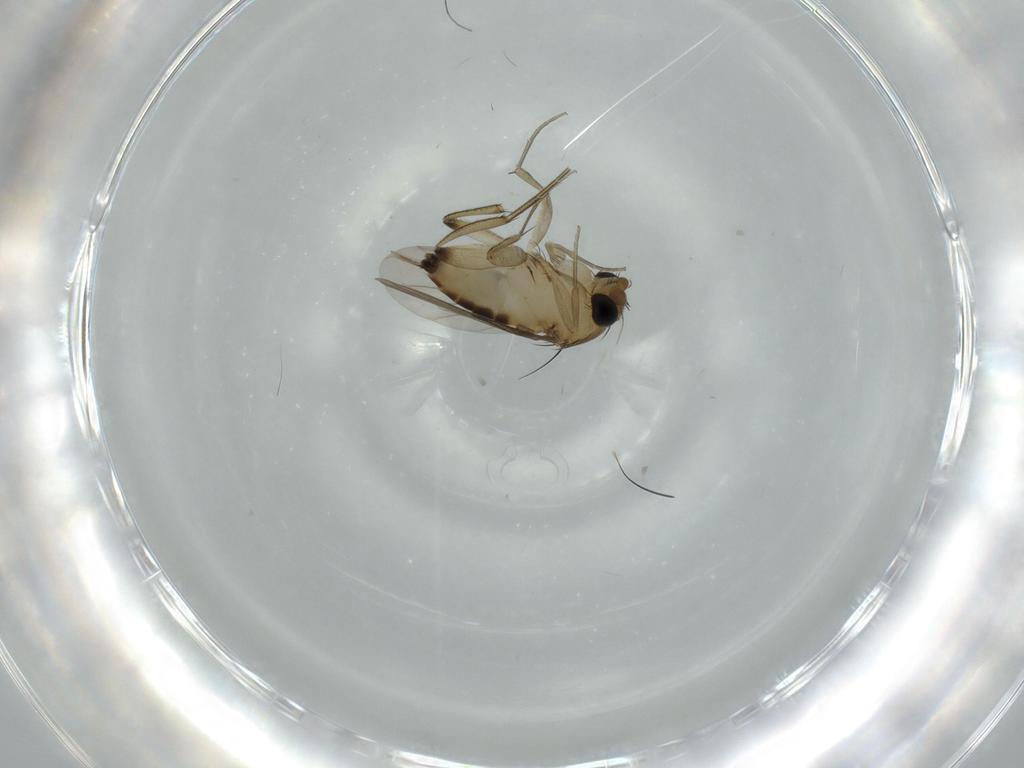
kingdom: Animalia
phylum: Arthropoda
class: Insecta
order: Diptera
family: Phoridae
